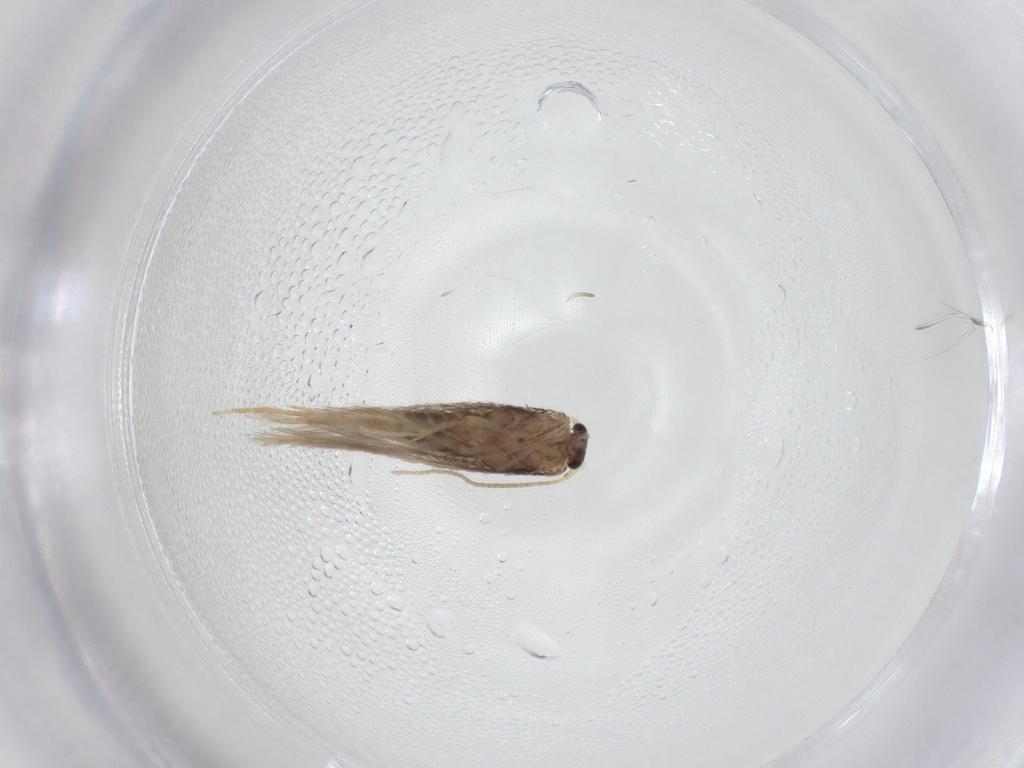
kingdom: Animalia
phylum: Arthropoda
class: Insecta
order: Lepidoptera
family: Nepticulidae
